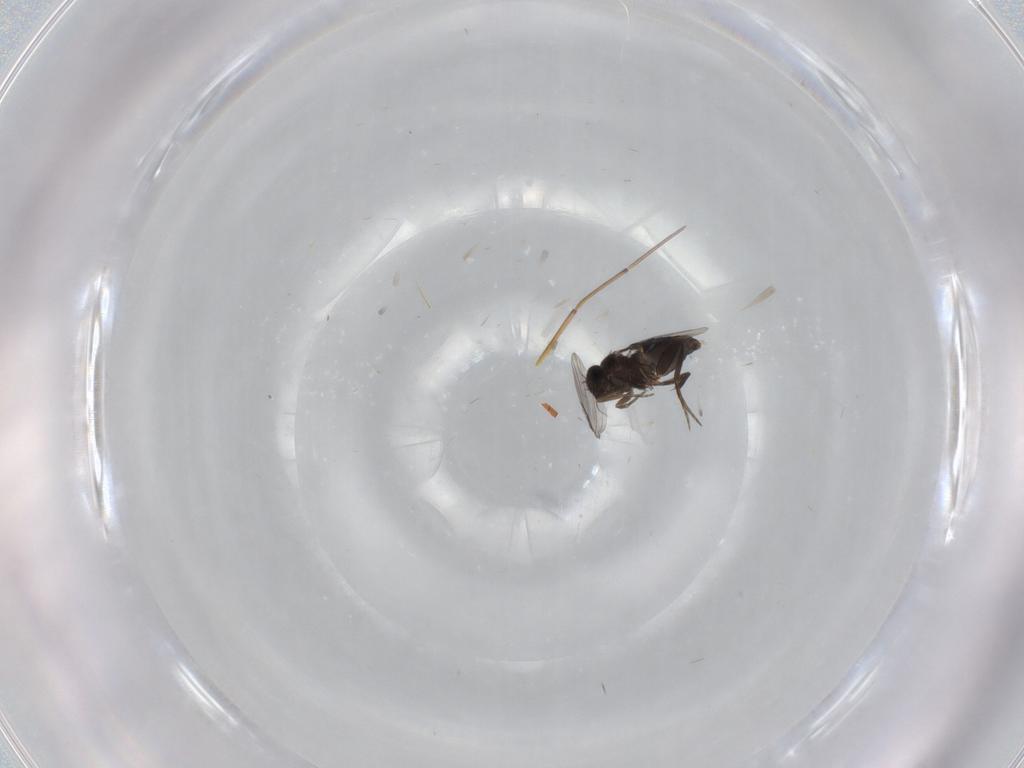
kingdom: Animalia
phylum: Arthropoda
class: Insecta
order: Diptera
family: Phoridae
